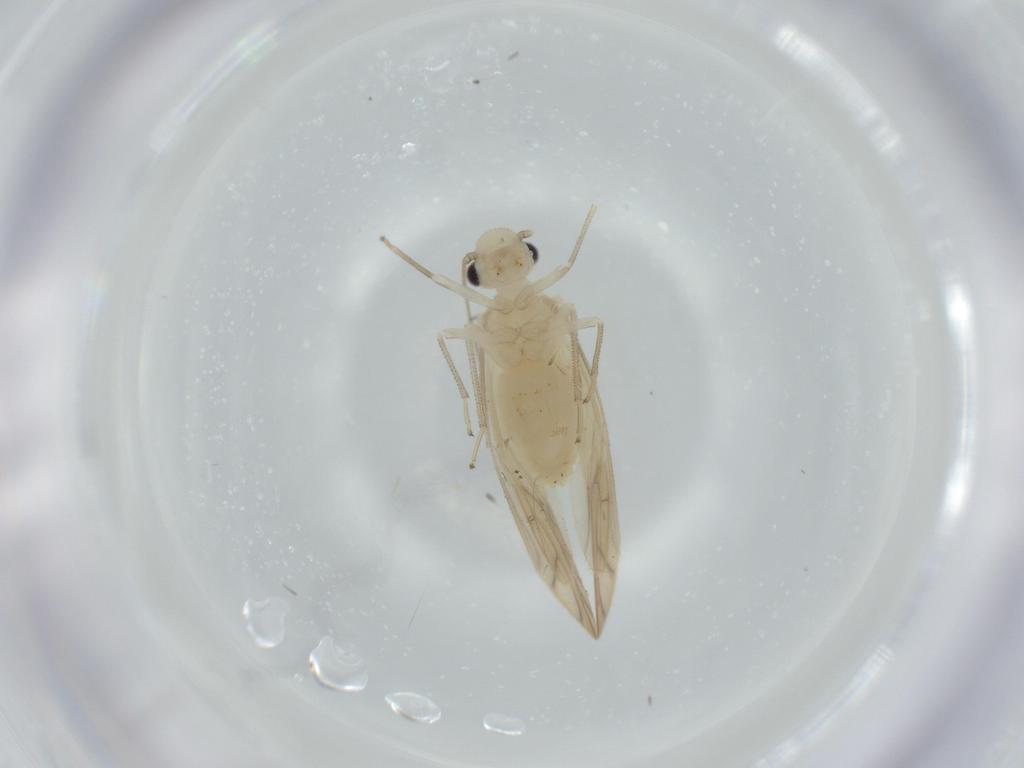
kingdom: Animalia
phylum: Arthropoda
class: Insecta
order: Psocodea
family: Caeciliusidae
